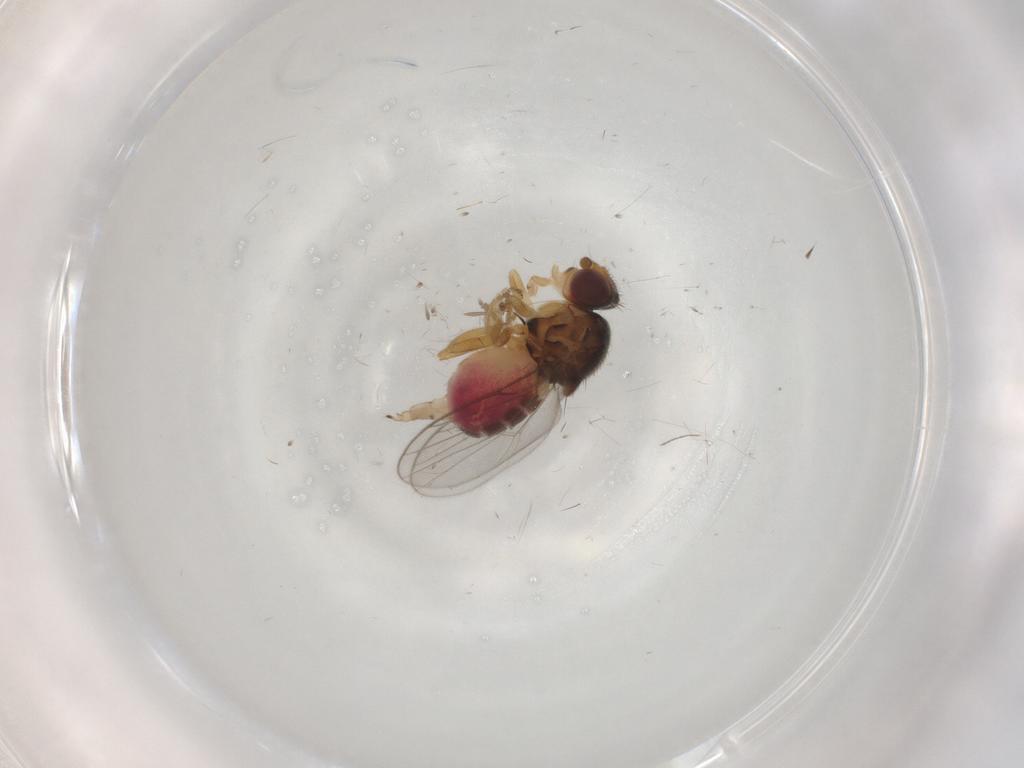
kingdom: Animalia
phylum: Arthropoda
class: Insecta
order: Diptera
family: Chloropidae
